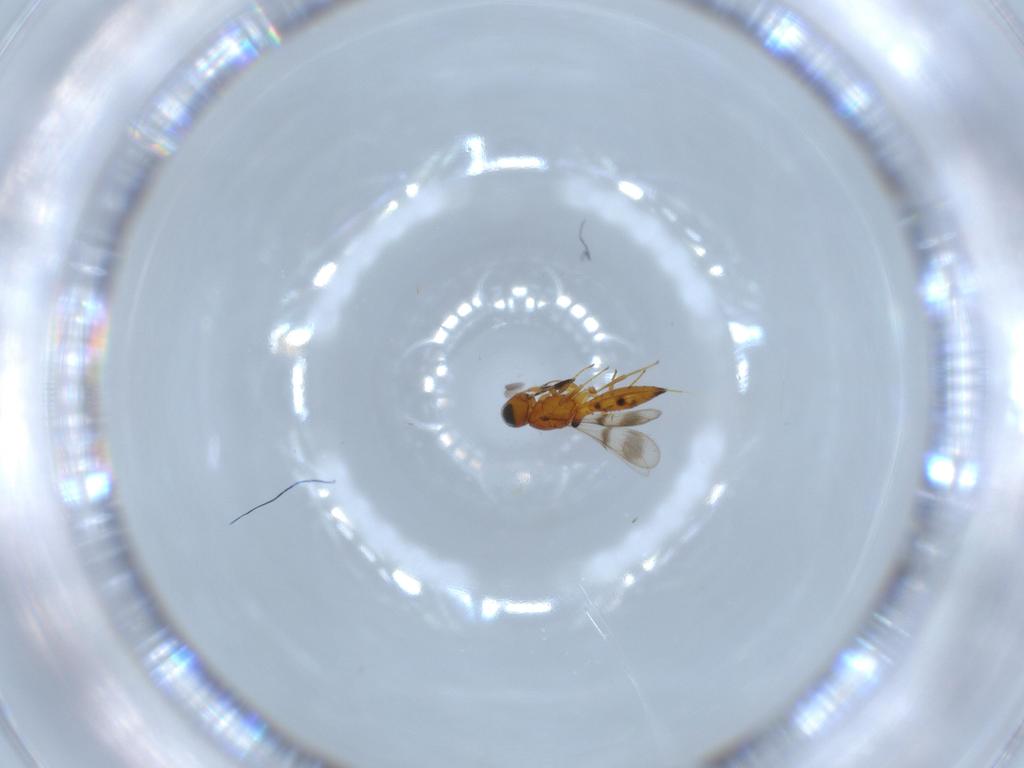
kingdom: Animalia
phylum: Arthropoda
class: Insecta
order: Hymenoptera
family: Scelionidae
